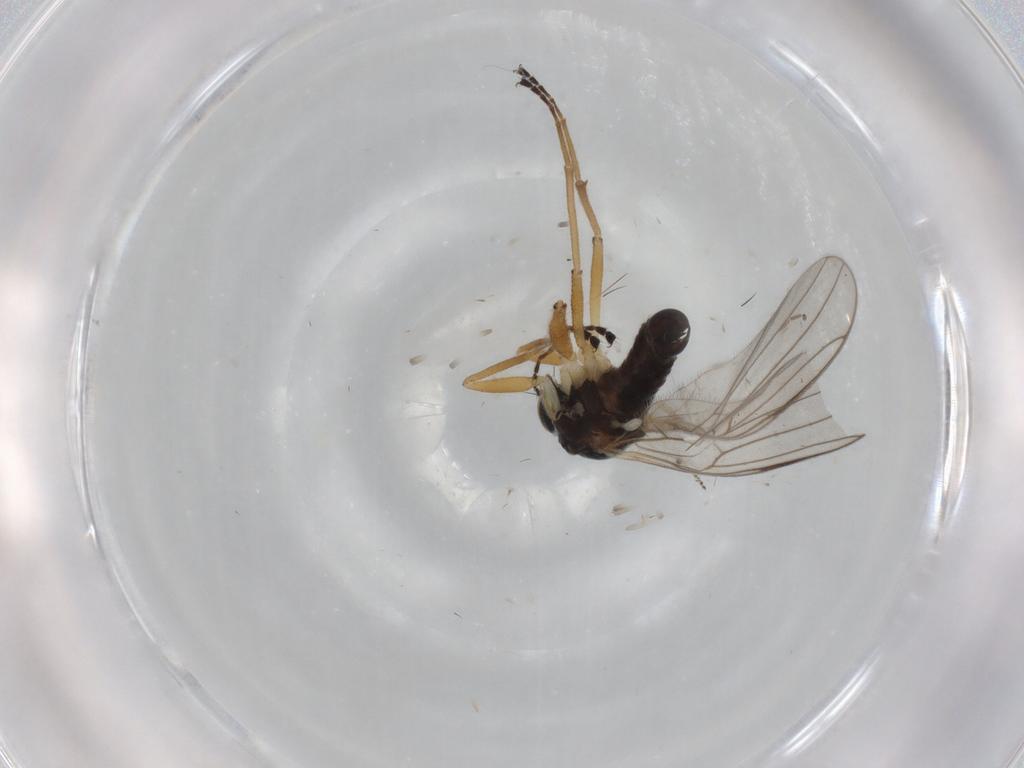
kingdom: Animalia
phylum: Arthropoda
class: Insecta
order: Diptera
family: Hybotidae
